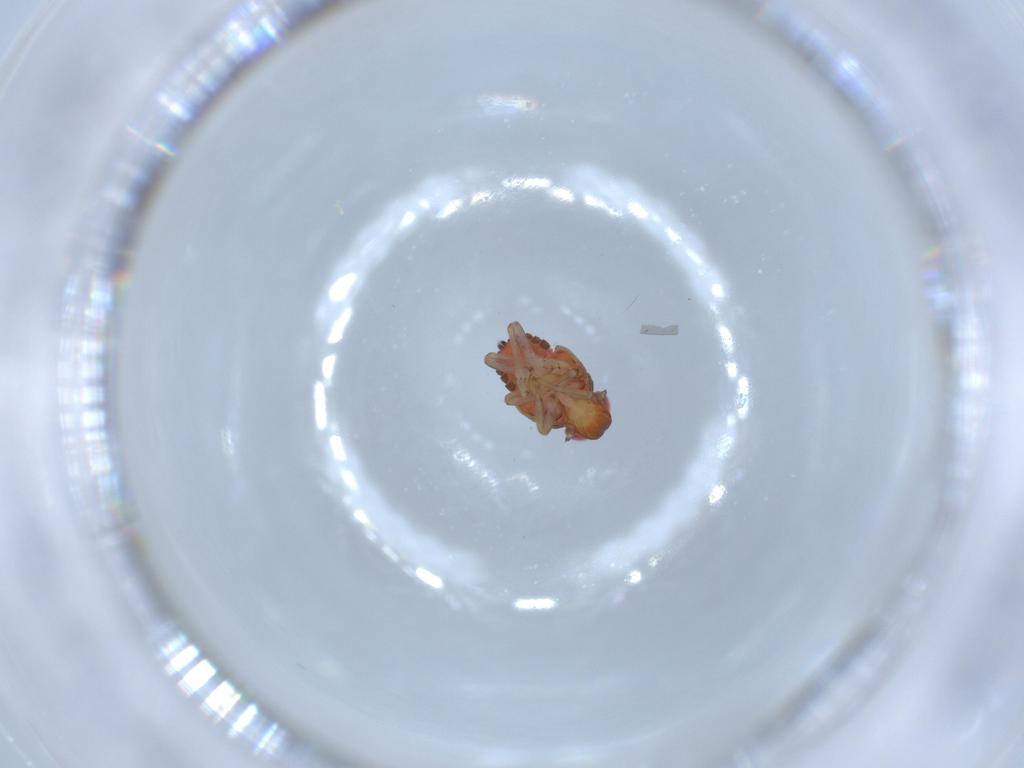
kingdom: Animalia
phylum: Arthropoda
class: Insecta
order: Hemiptera
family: Issidae
